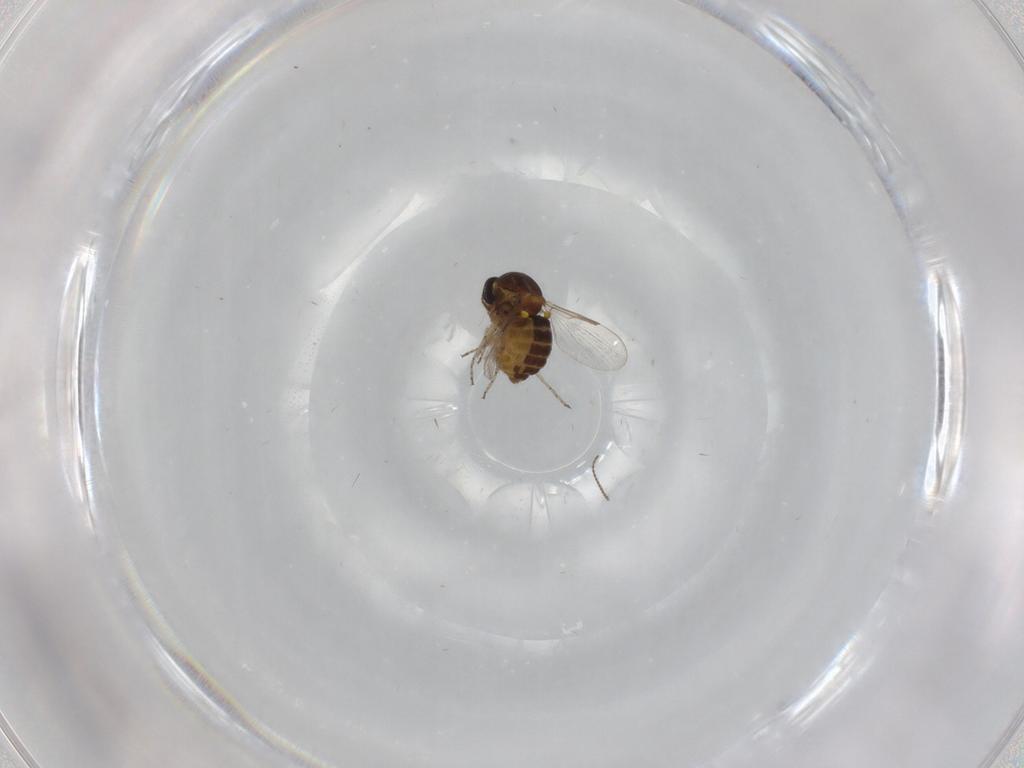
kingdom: Animalia
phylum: Arthropoda
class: Insecta
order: Diptera
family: Ceratopogonidae
